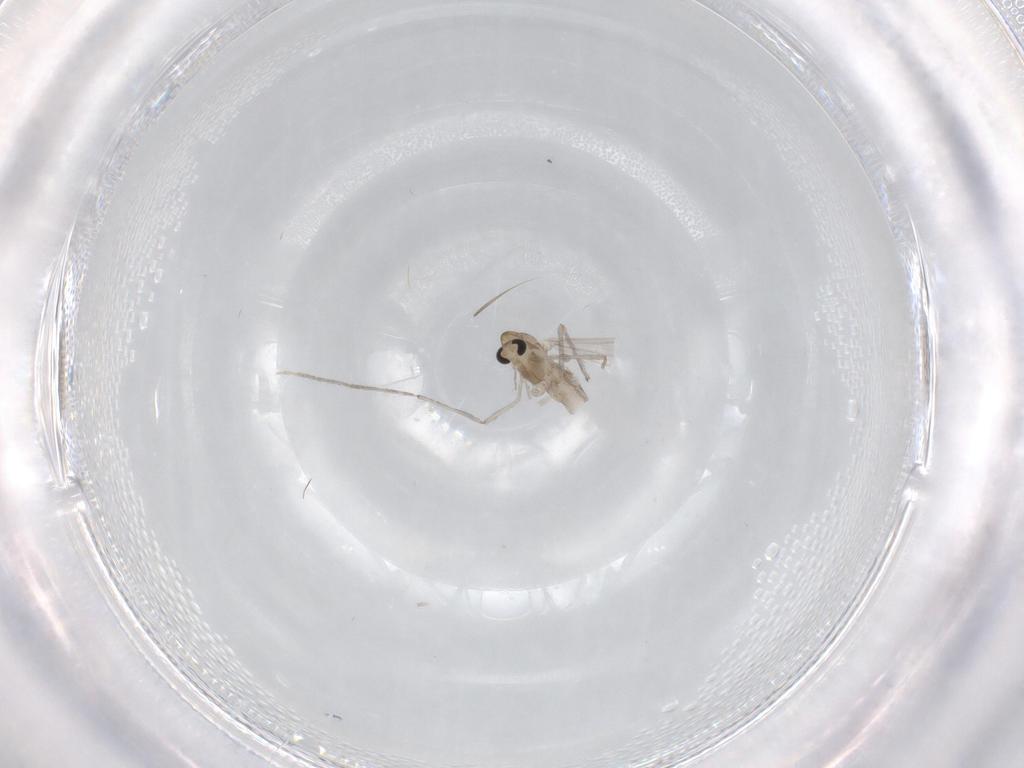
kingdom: Animalia
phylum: Arthropoda
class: Insecta
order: Diptera
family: Chironomidae
